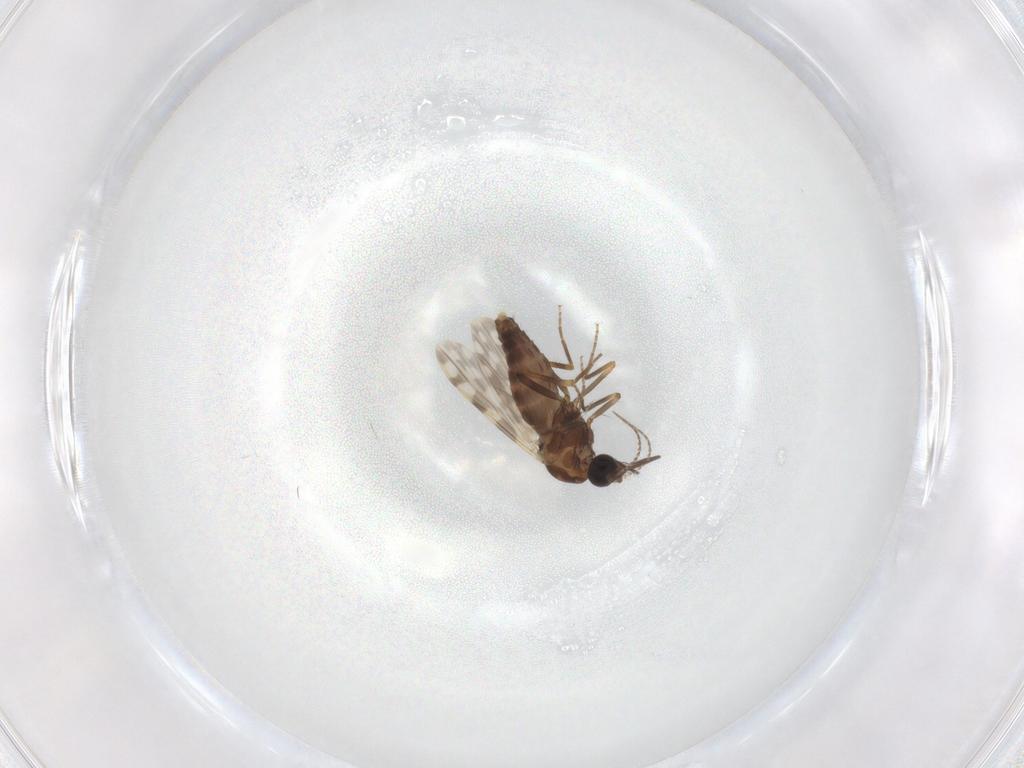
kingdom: Animalia
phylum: Arthropoda
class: Insecta
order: Diptera
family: Ceratopogonidae
